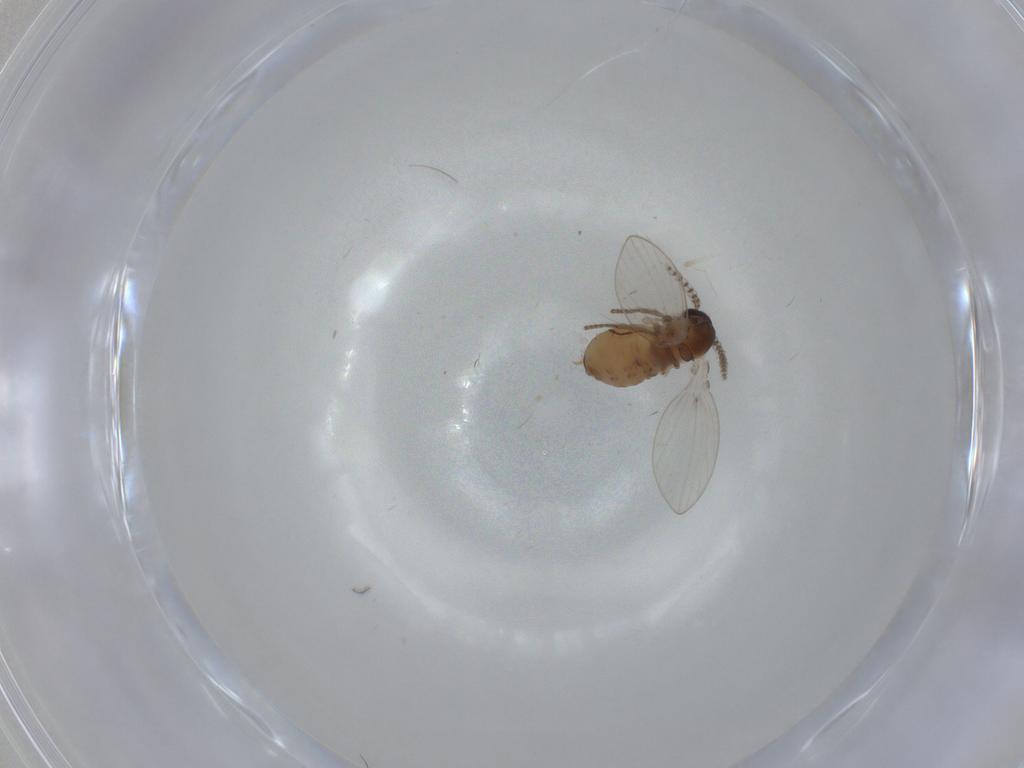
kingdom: Animalia
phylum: Arthropoda
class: Insecta
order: Diptera
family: Psychodidae
